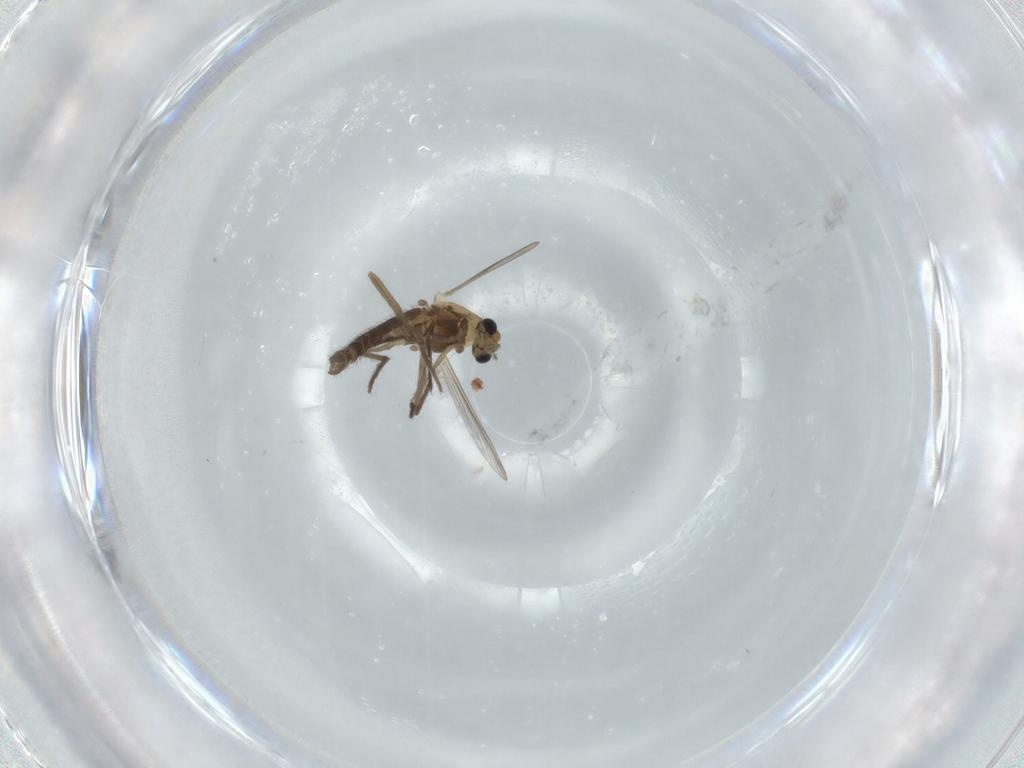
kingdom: Animalia
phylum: Arthropoda
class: Insecta
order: Diptera
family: Chironomidae
